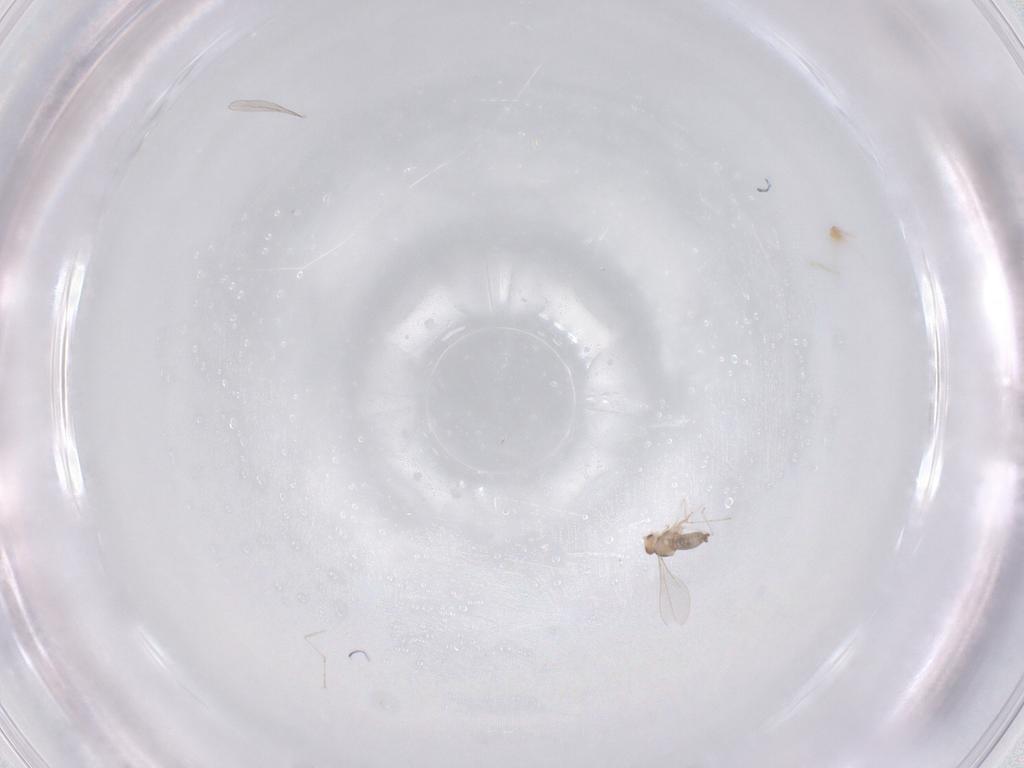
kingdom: Animalia
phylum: Arthropoda
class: Insecta
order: Diptera
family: Cecidomyiidae
